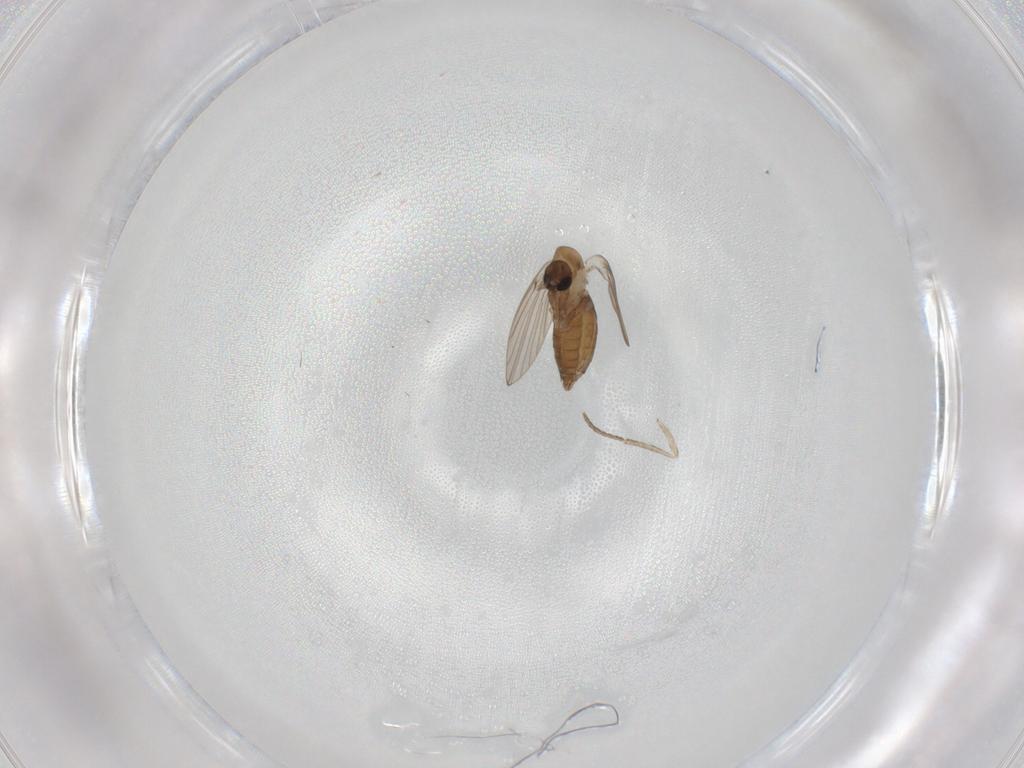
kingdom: Animalia
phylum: Arthropoda
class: Insecta
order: Diptera
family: Psychodidae
